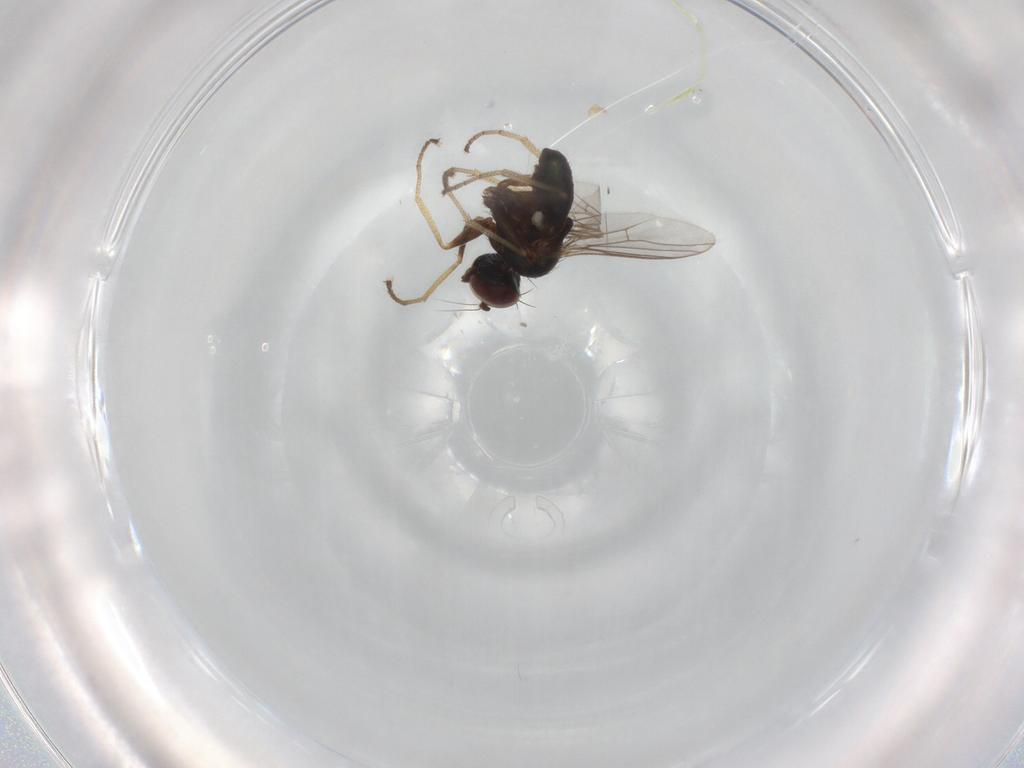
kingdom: Animalia
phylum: Arthropoda
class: Insecta
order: Diptera
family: Dolichopodidae
